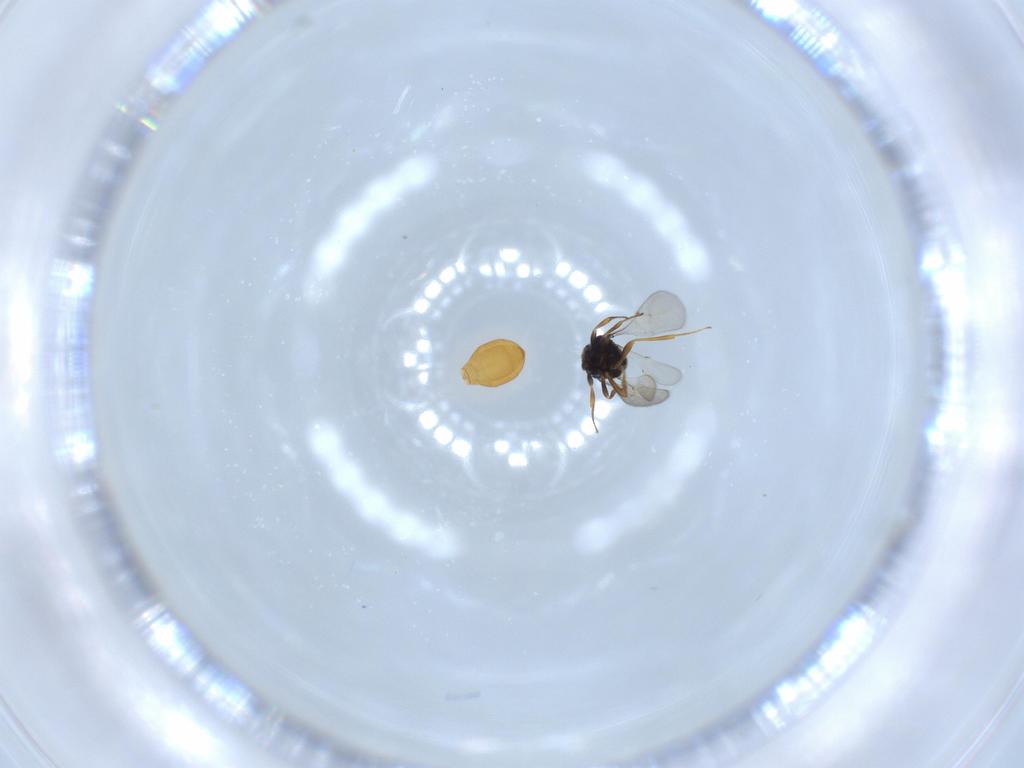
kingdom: Animalia
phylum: Arthropoda
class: Insecta
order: Hymenoptera
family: Scelionidae
